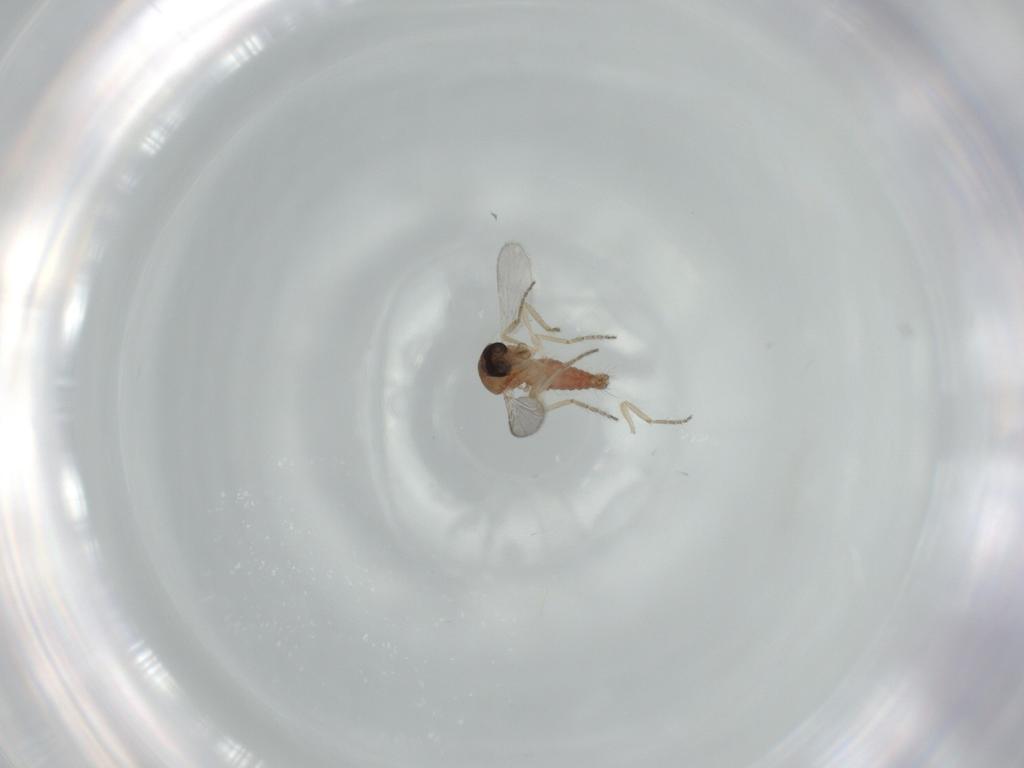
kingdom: Animalia
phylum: Arthropoda
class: Insecta
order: Diptera
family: Ceratopogonidae
